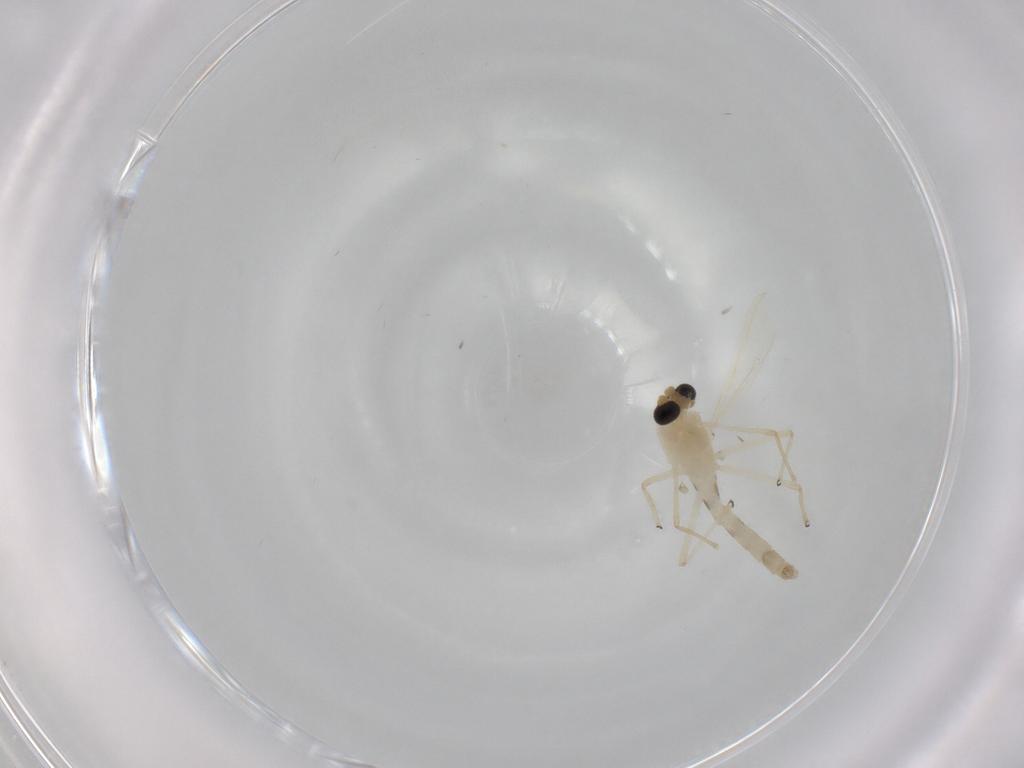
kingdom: Animalia
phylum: Arthropoda
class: Insecta
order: Diptera
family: Chironomidae
